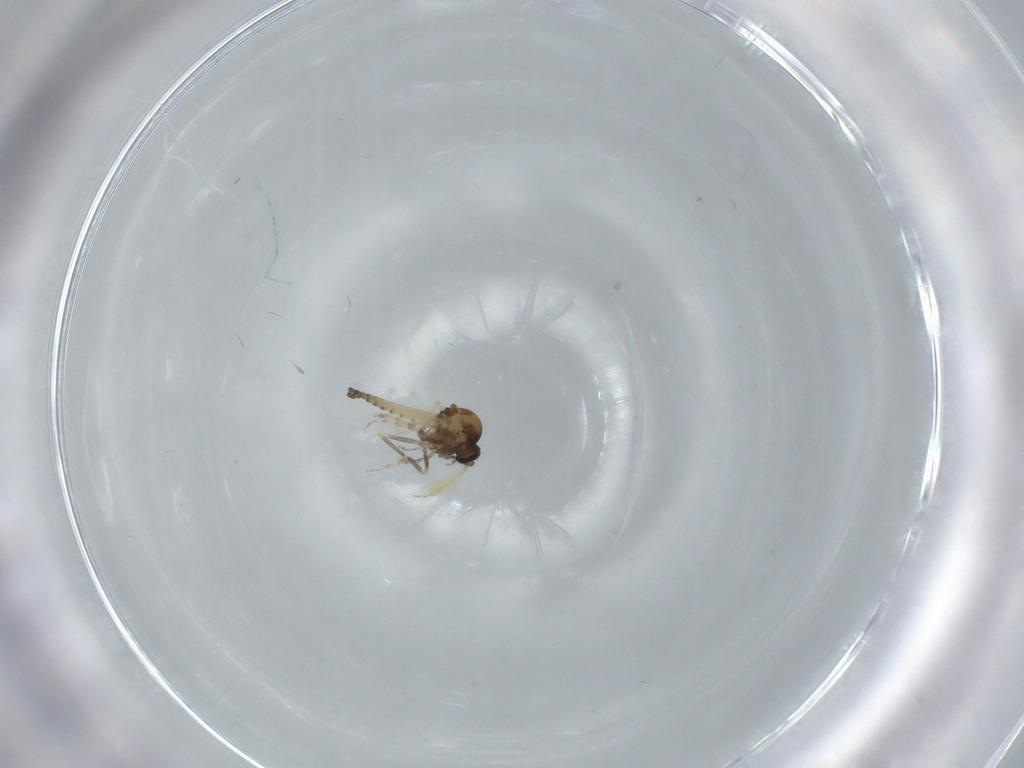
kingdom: Animalia
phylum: Arthropoda
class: Insecta
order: Diptera
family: Ceratopogonidae
